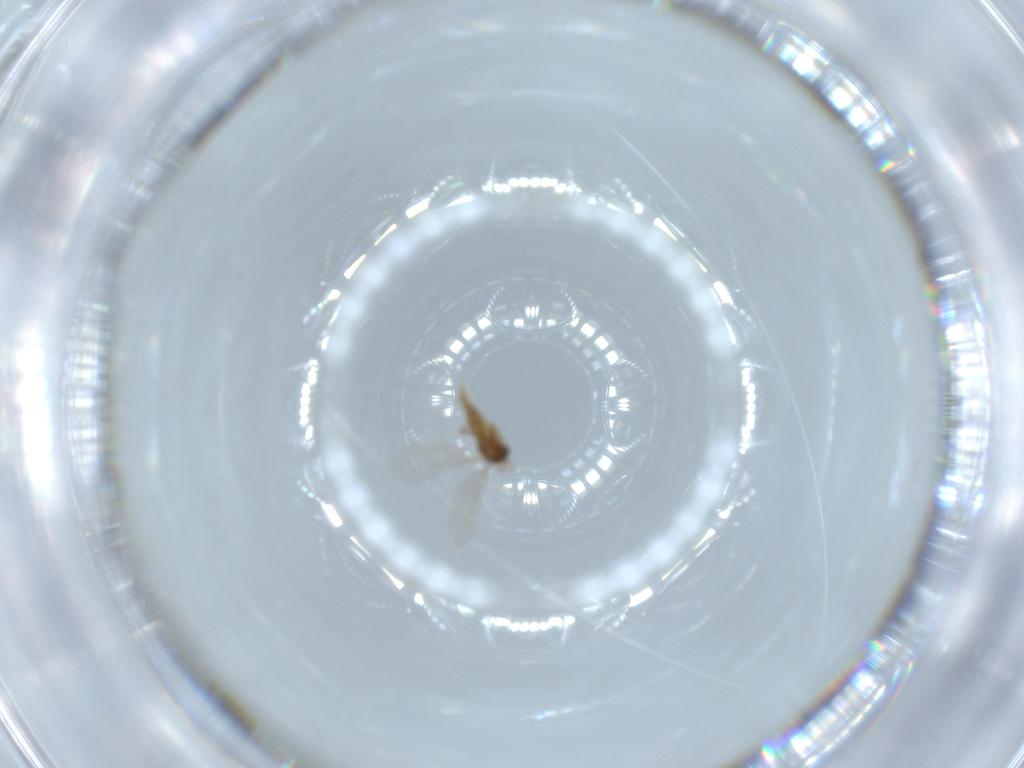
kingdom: Animalia
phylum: Arthropoda
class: Insecta
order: Diptera
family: Cecidomyiidae
